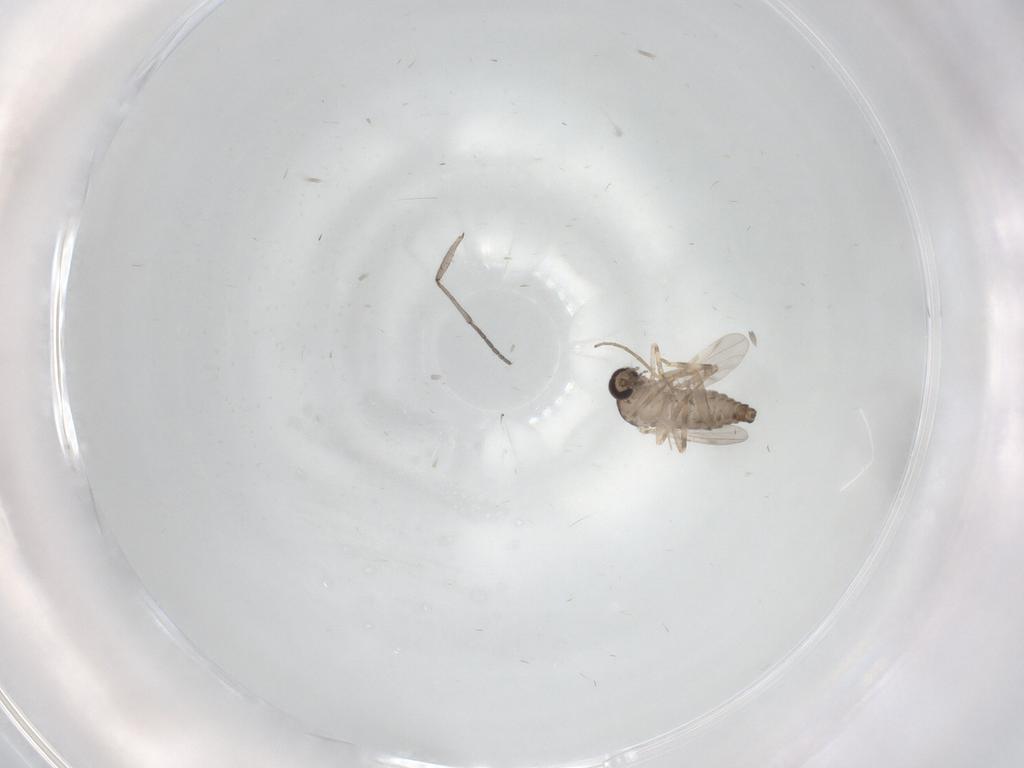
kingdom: Animalia
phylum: Arthropoda
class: Insecta
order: Diptera
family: Ceratopogonidae
